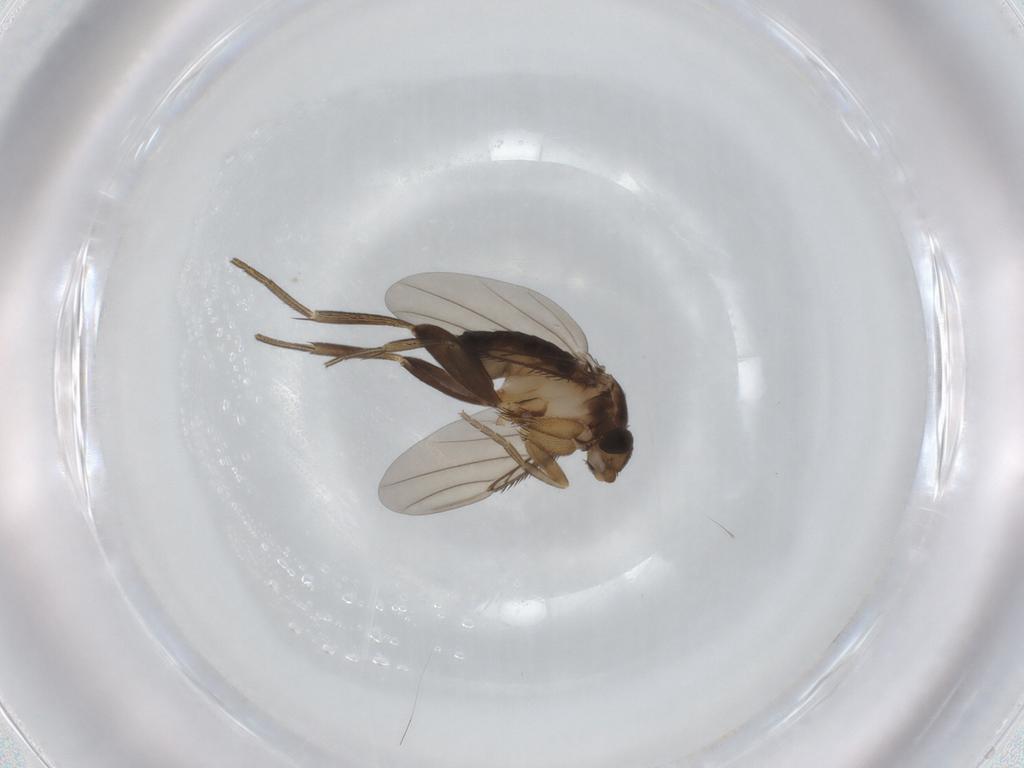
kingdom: Animalia
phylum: Arthropoda
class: Insecta
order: Diptera
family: Phoridae
